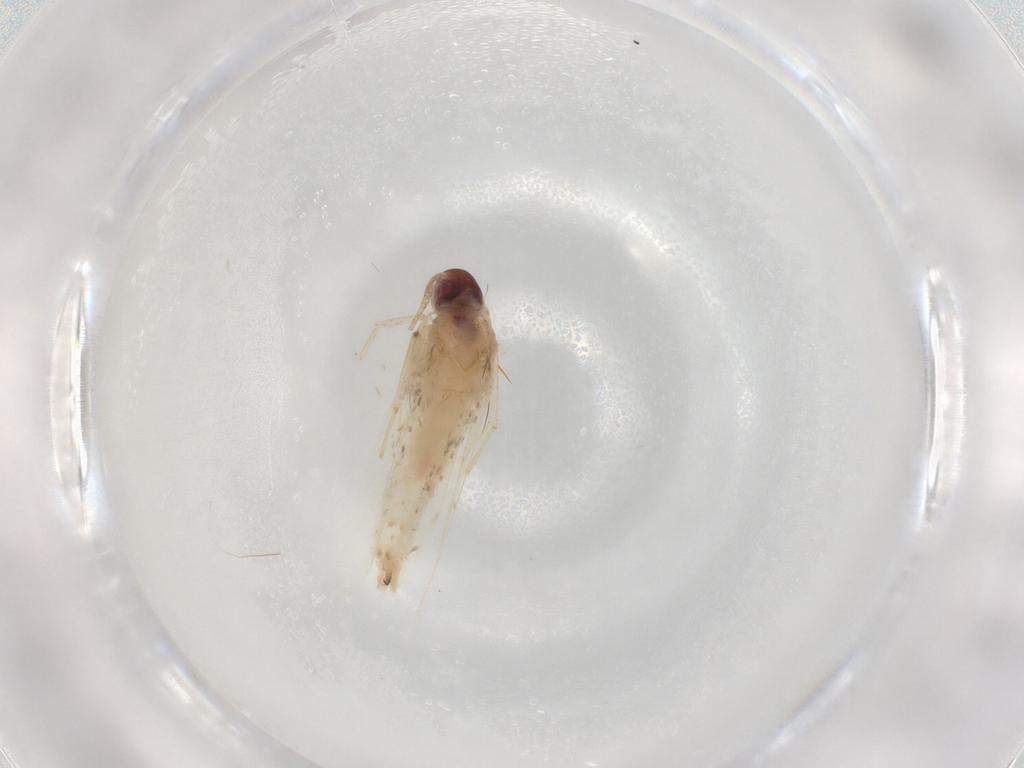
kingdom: Animalia
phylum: Arthropoda
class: Insecta
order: Lepidoptera
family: Cosmopterigidae
